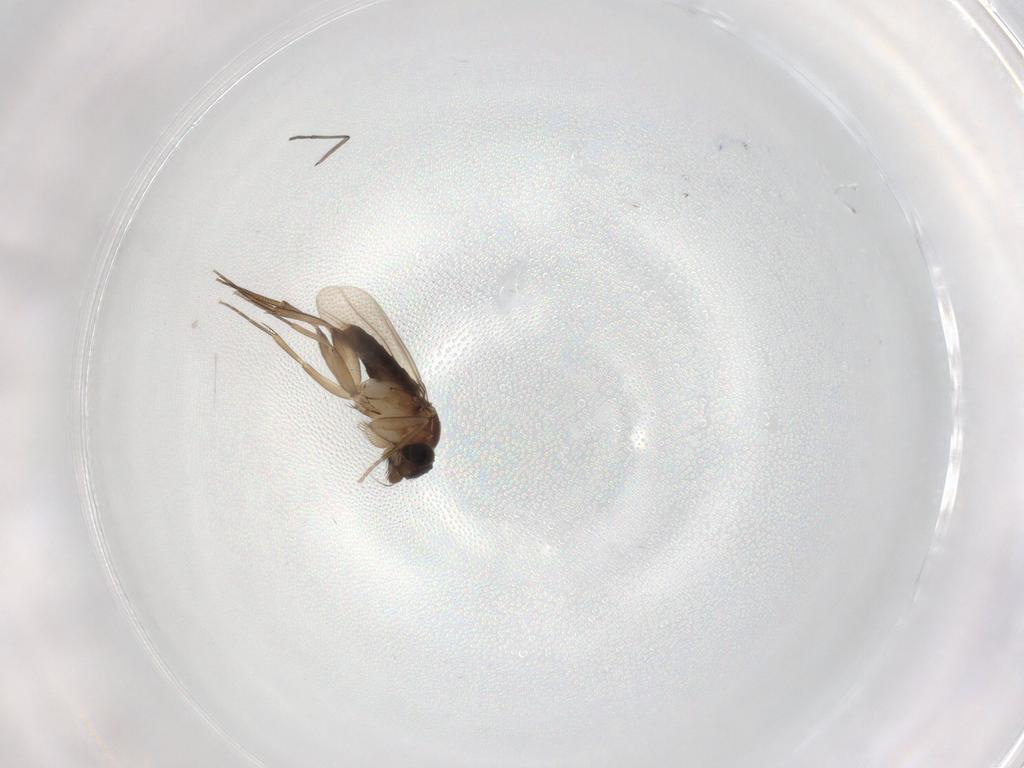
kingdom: Animalia
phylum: Arthropoda
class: Insecta
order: Diptera
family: Phoridae
